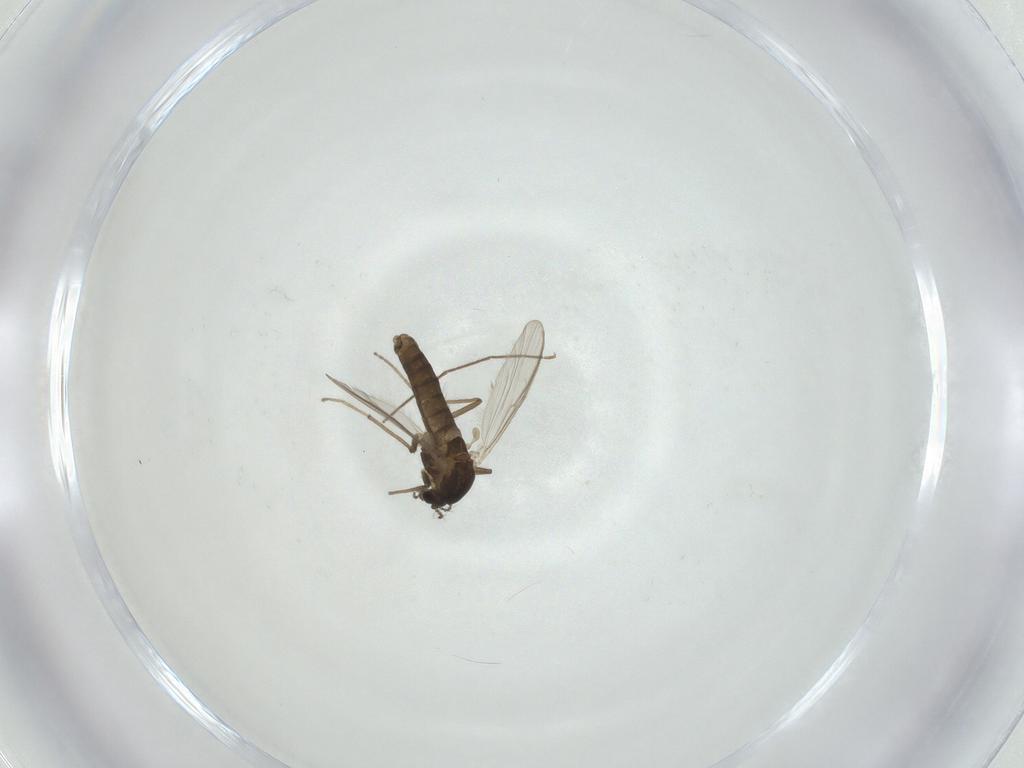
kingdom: Animalia
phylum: Arthropoda
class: Insecta
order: Diptera
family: Chironomidae
